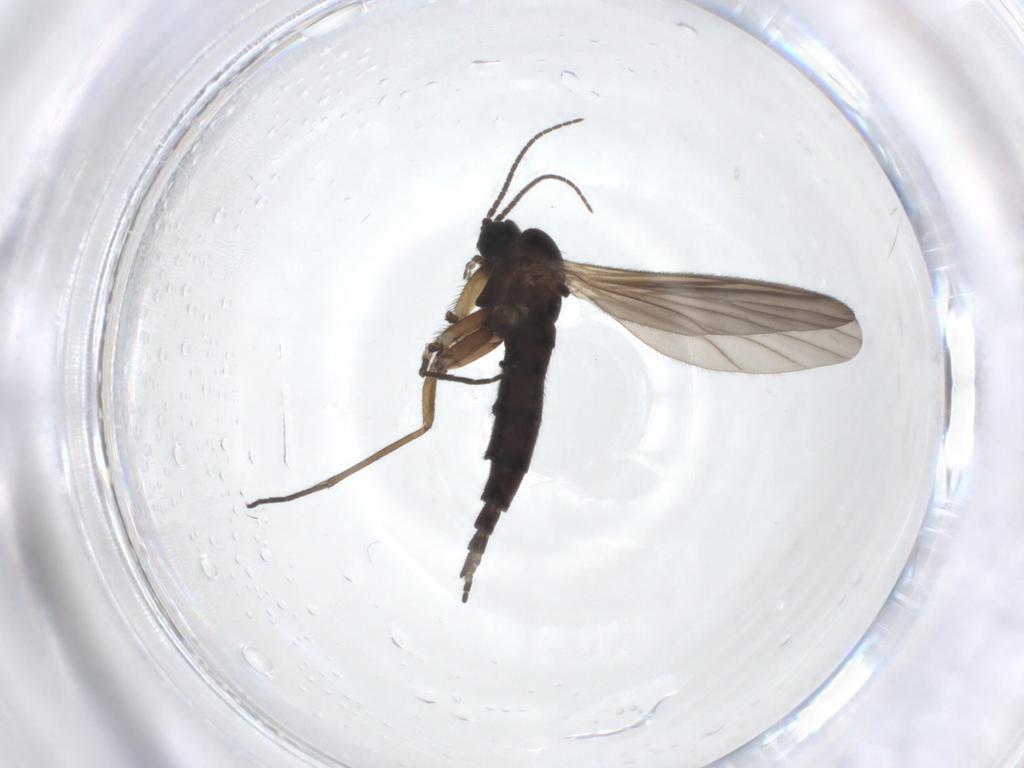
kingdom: Animalia
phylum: Arthropoda
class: Insecta
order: Diptera
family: Sciaridae
